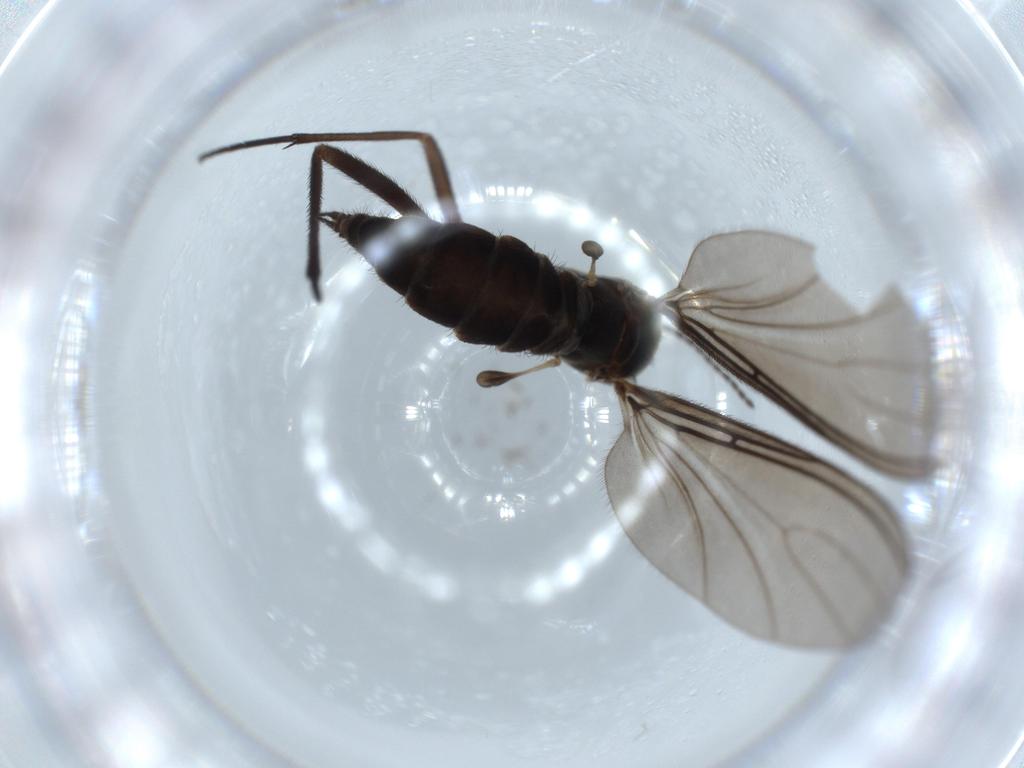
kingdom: Animalia
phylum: Arthropoda
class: Insecta
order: Diptera
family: Sciaridae
